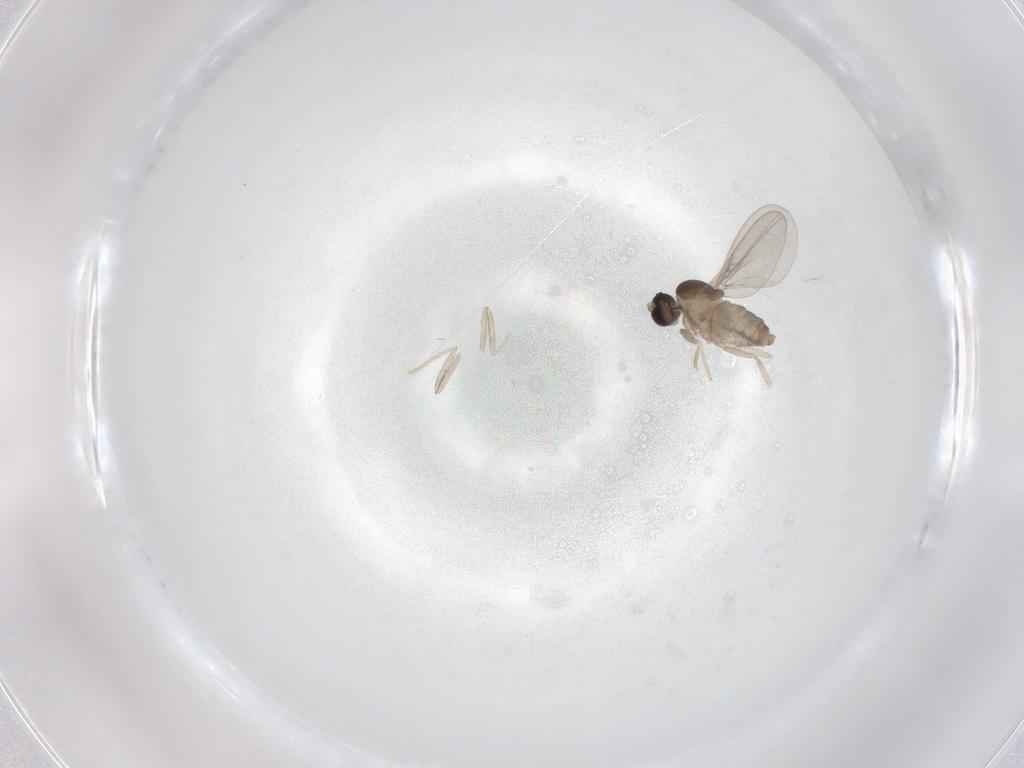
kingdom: Animalia
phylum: Arthropoda
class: Insecta
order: Diptera
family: Cecidomyiidae
